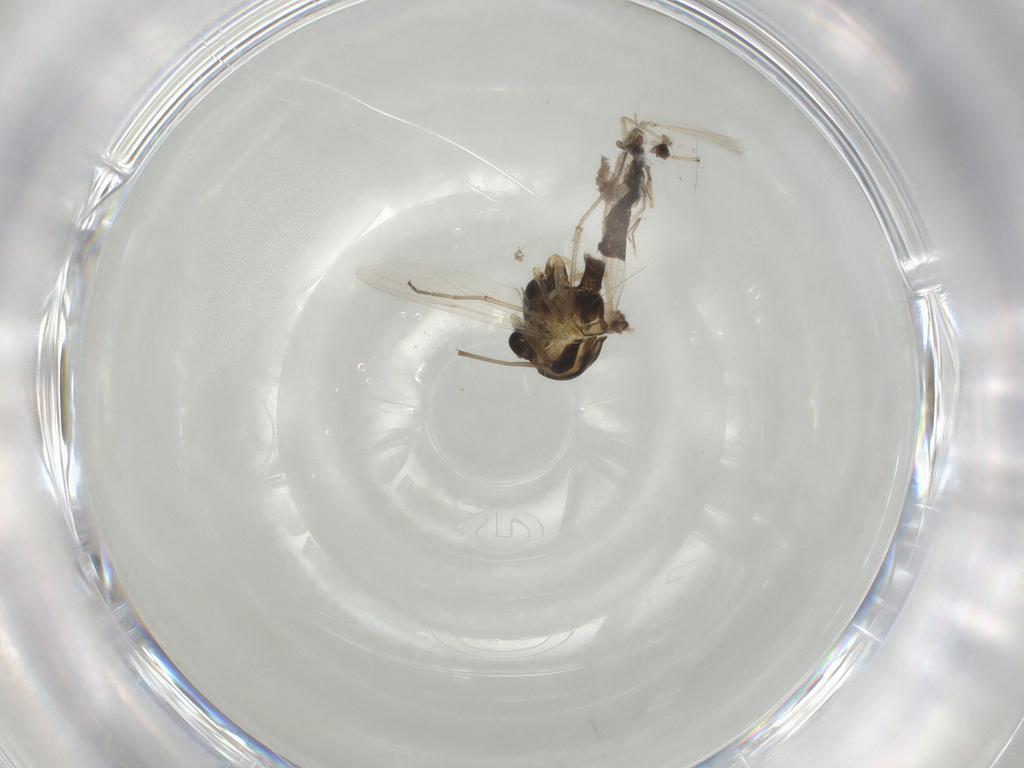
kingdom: Animalia
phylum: Arthropoda
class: Insecta
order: Diptera
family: Chironomidae
